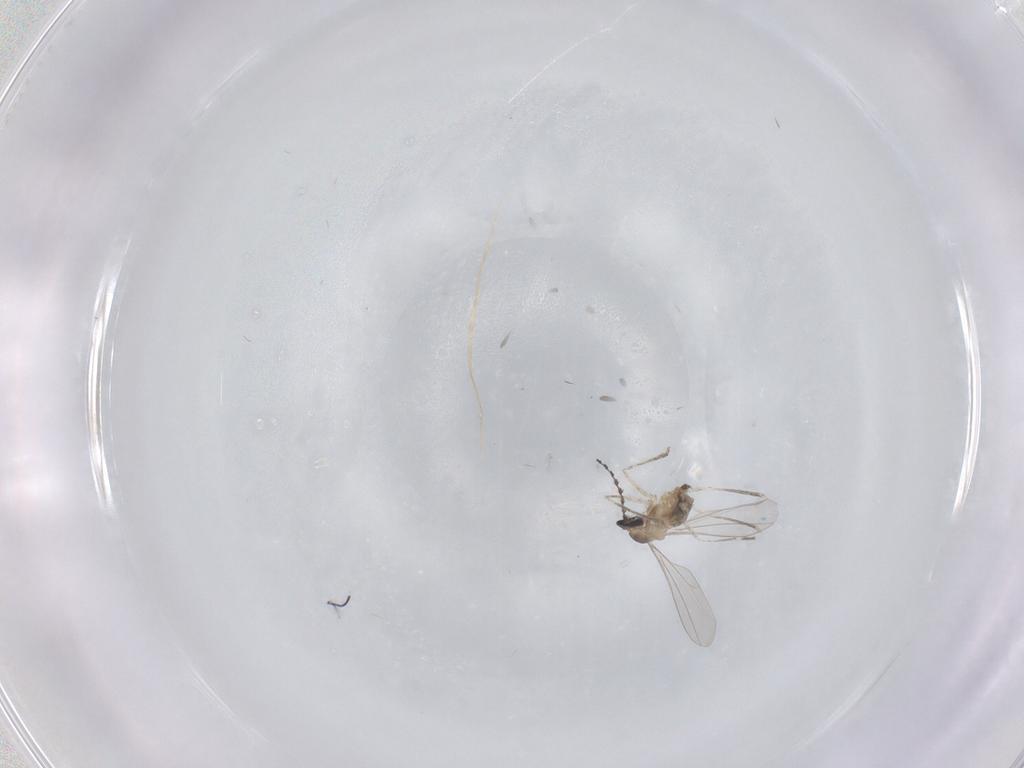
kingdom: Animalia
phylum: Arthropoda
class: Insecta
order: Diptera
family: Cecidomyiidae
